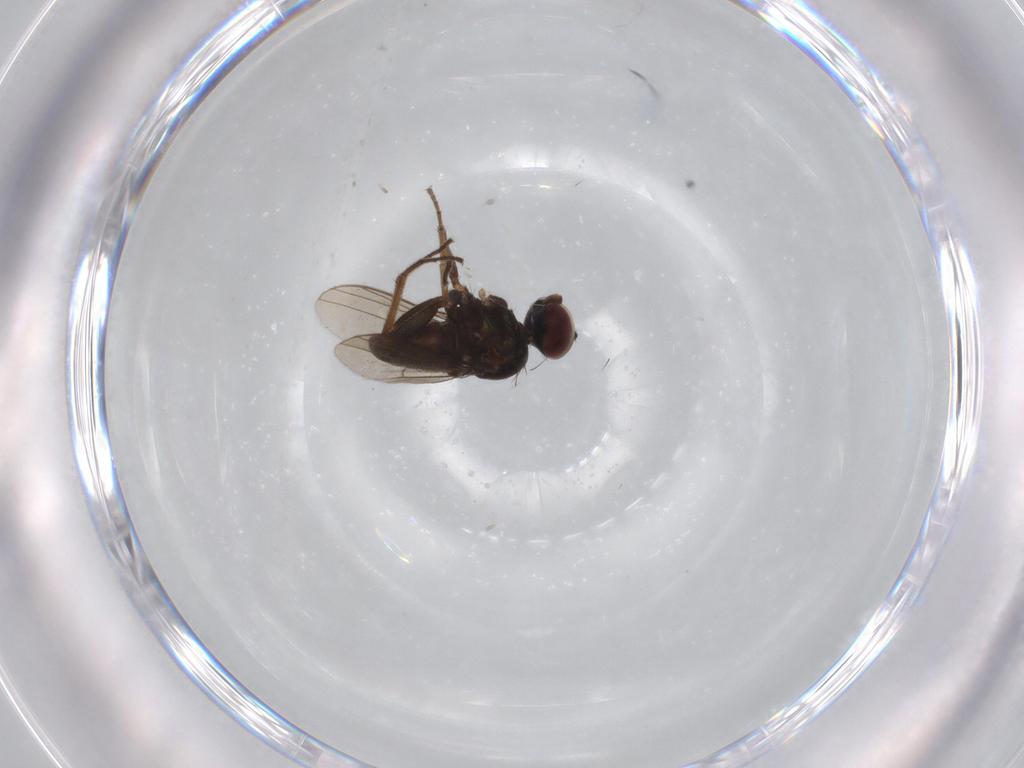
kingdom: Animalia
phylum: Arthropoda
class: Insecta
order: Diptera
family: Dolichopodidae
